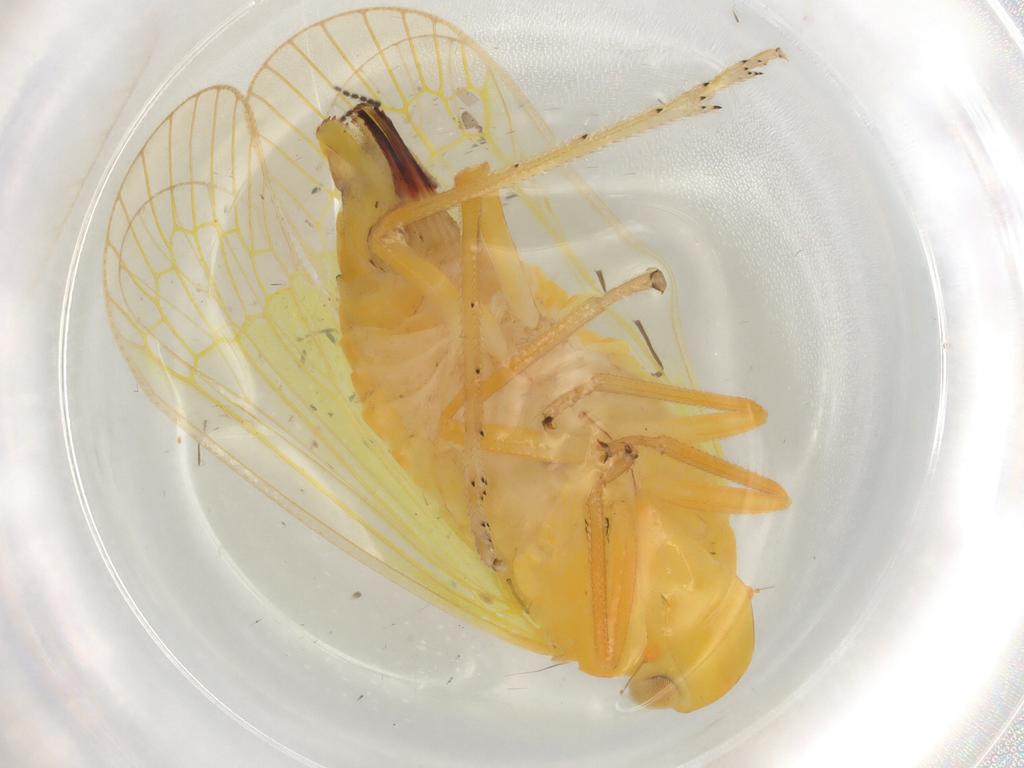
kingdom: Animalia
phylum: Arthropoda
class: Insecta
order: Hemiptera
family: Tropiduchidae
